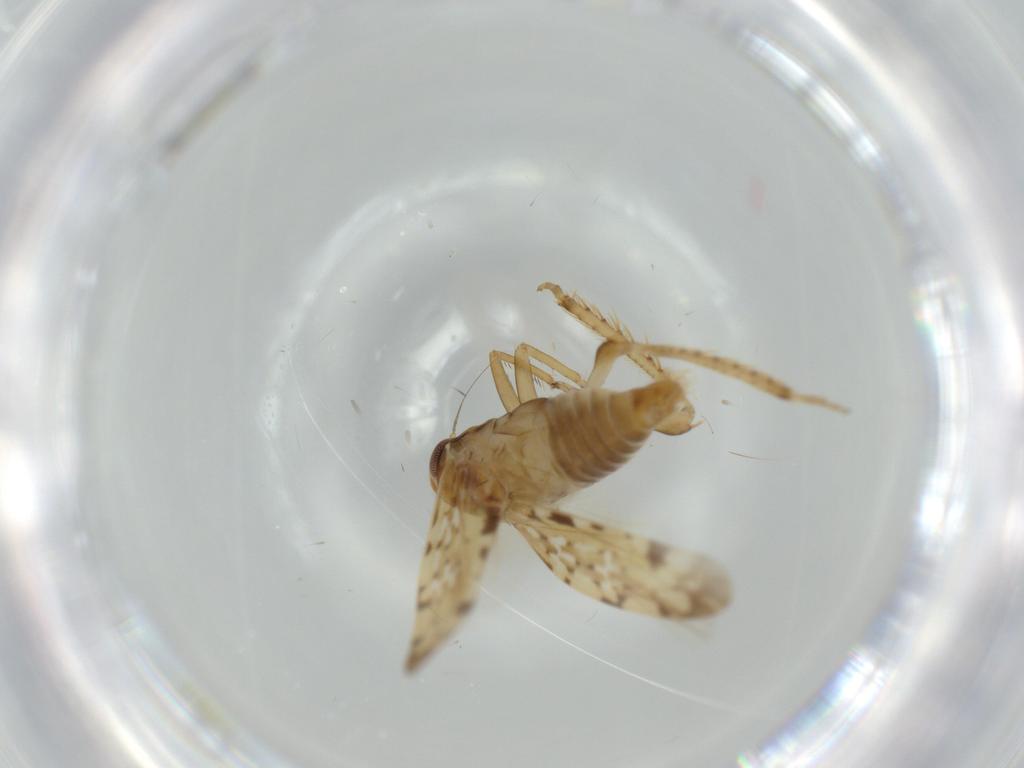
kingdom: Animalia
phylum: Arthropoda
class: Insecta
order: Hemiptera
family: Cicadellidae
